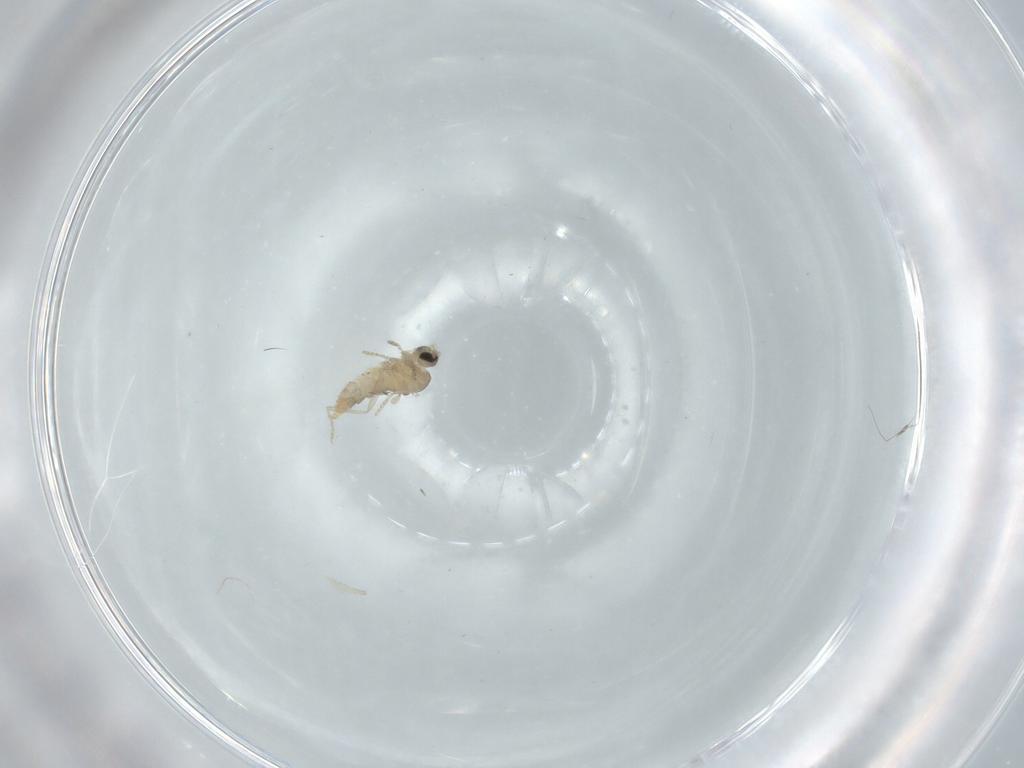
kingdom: Animalia
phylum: Arthropoda
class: Insecta
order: Diptera
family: Cecidomyiidae
